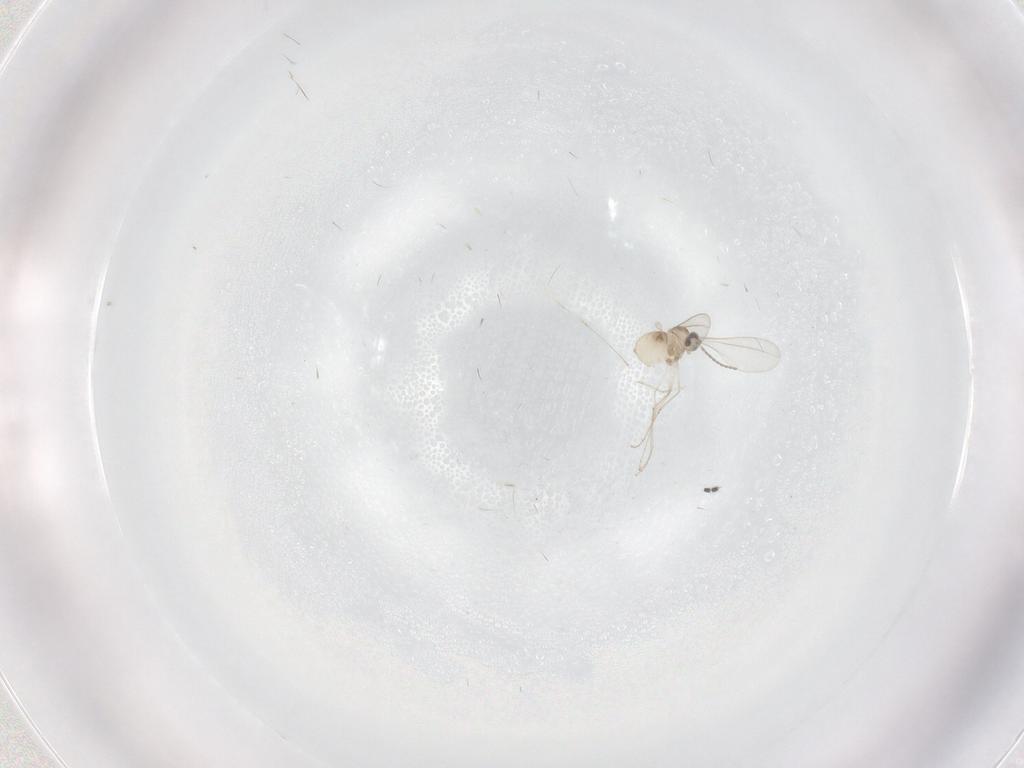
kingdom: Animalia
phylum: Arthropoda
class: Insecta
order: Diptera
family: Cecidomyiidae
